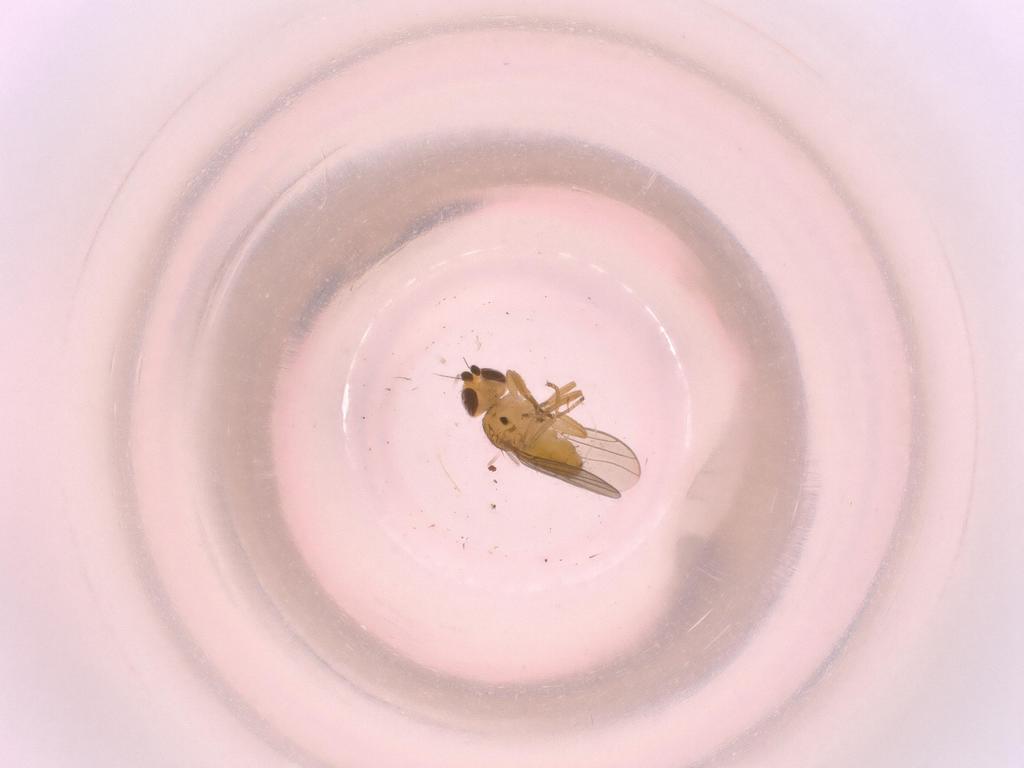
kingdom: Animalia
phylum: Arthropoda
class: Insecta
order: Diptera
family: Chloropidae
